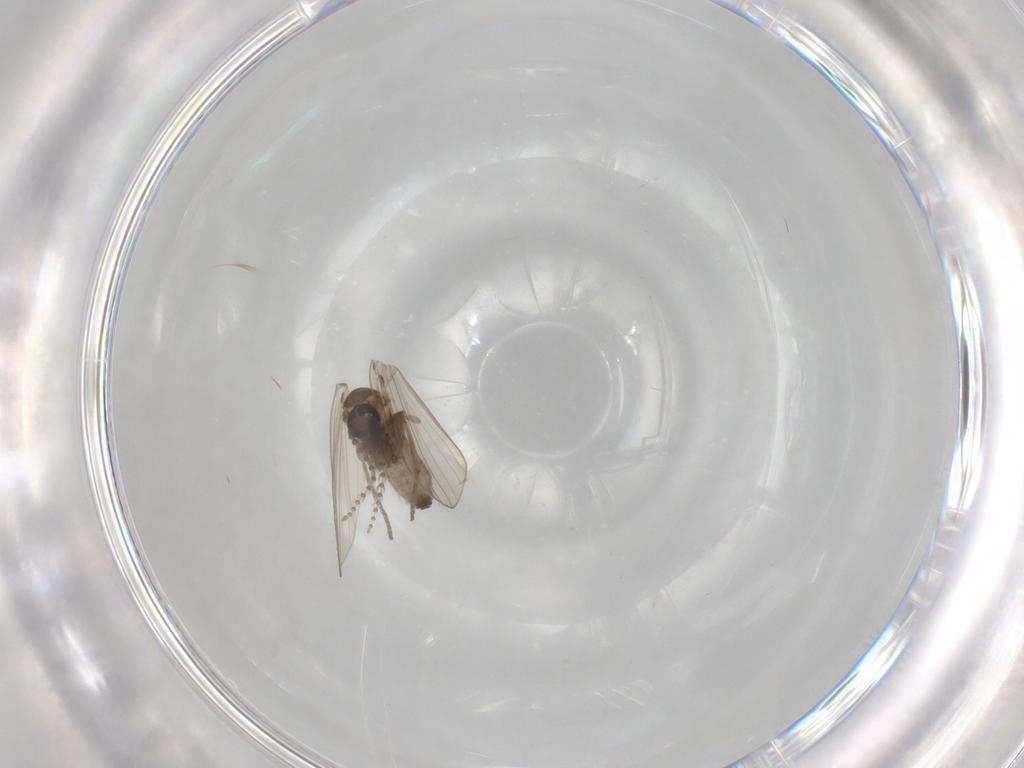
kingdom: Animalia
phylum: Arthropoda
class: Insecta
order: Diptera
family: Psychodidae
